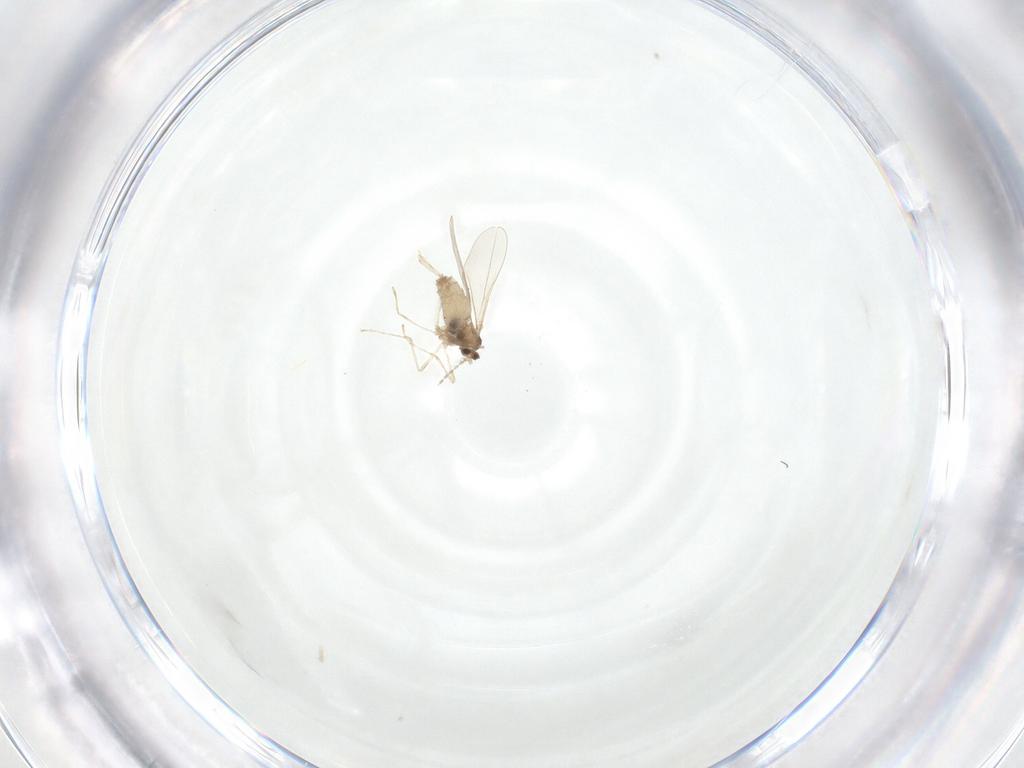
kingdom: Animalia
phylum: Arthropoda
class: Insecta
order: Diptera
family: Cecidomyiidae
